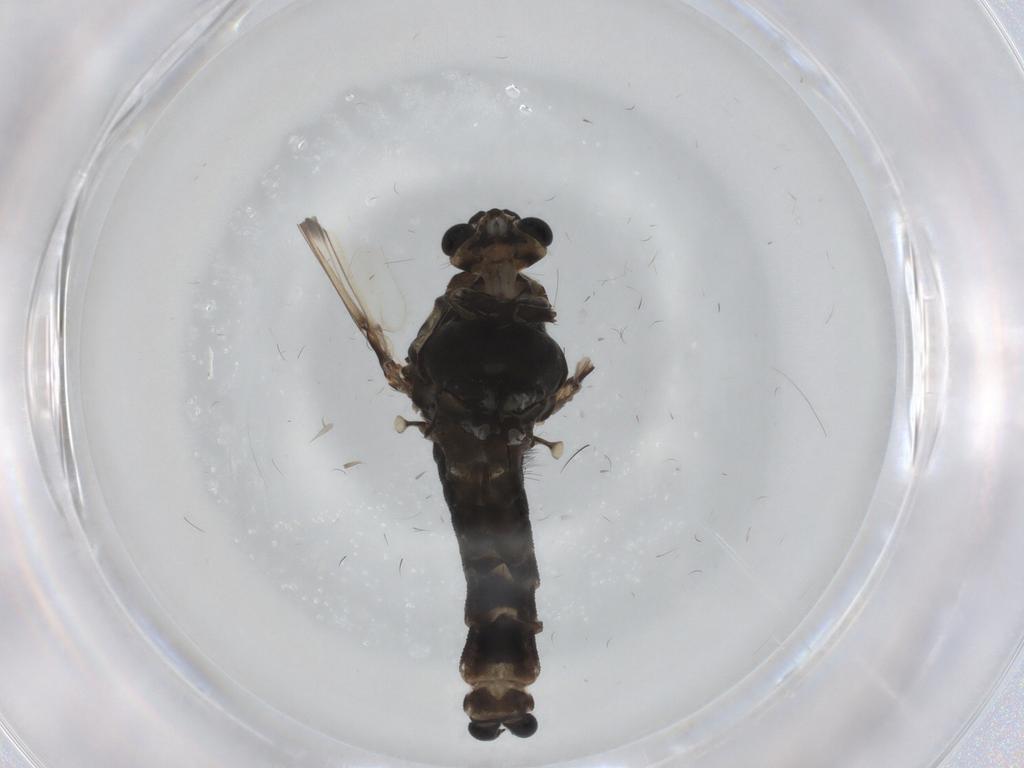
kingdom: Animalia
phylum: Arthropoda
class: Insecta
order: Diptera
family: Chironomidae
